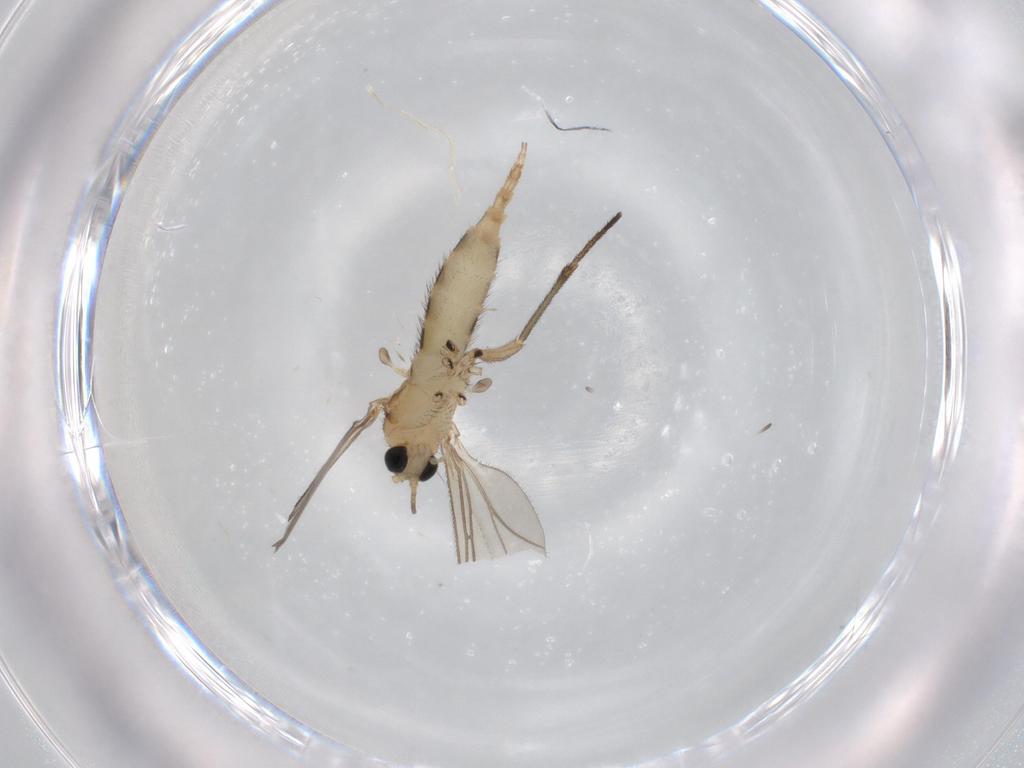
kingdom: Animalia
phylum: Arthropoda
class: Insecta
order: Diptera
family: Sciaridae
